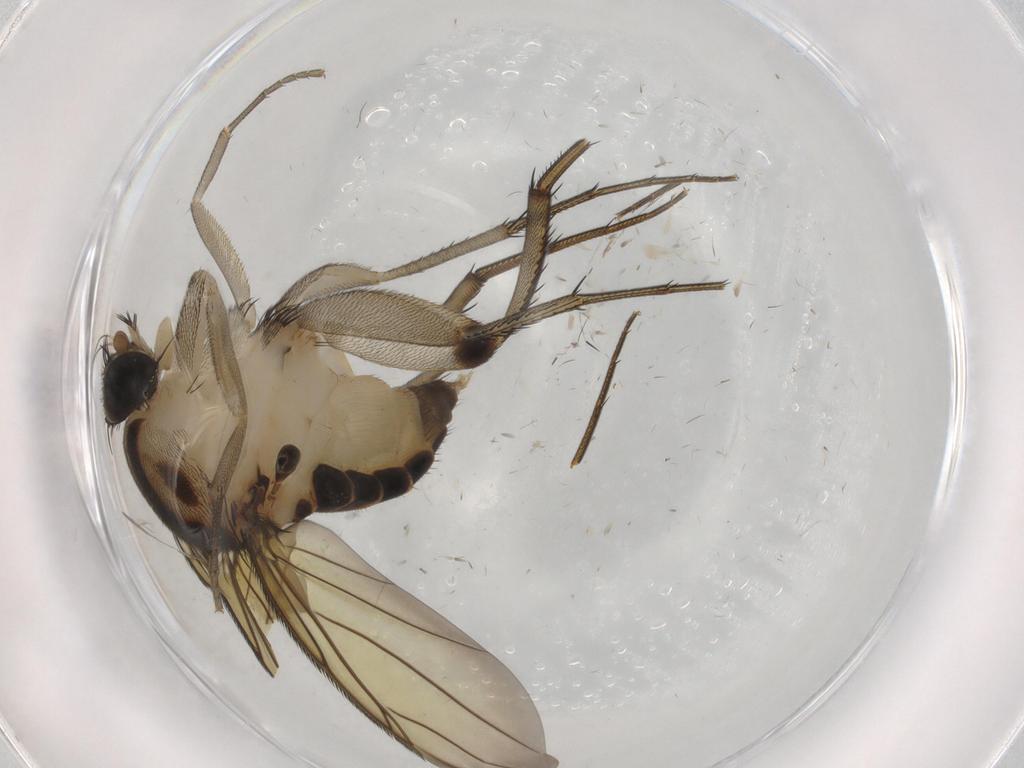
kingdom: Animalia
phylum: Arthropoda
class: Insecta
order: Diptera
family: Phoridae
